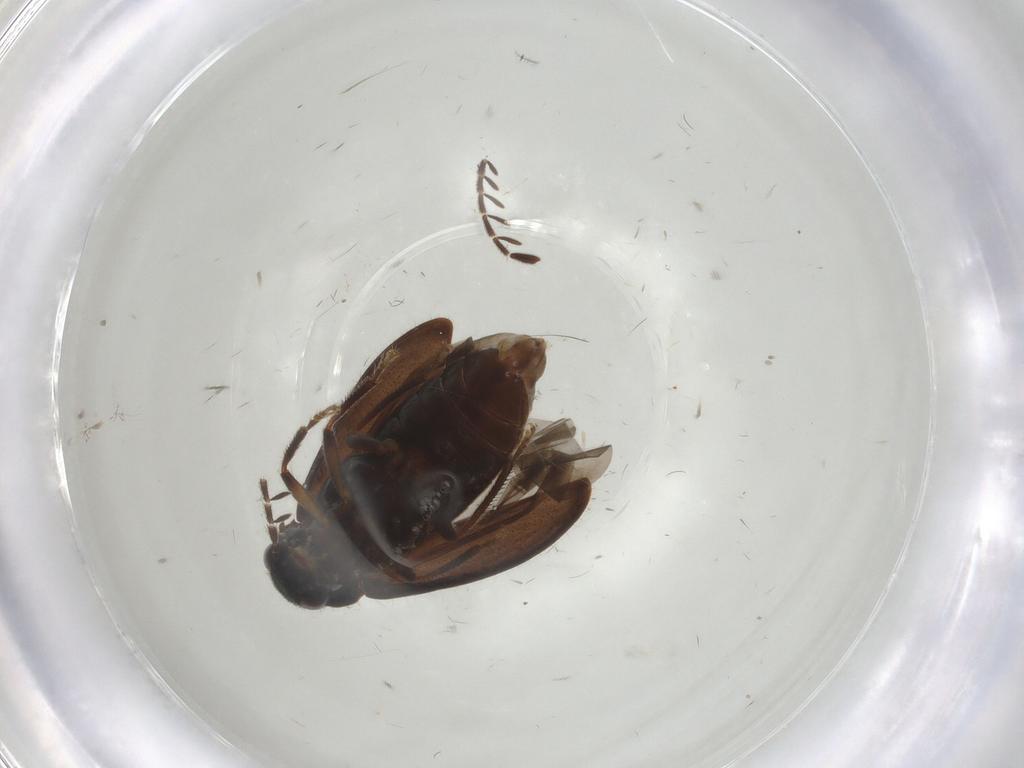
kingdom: Animalia
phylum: Arthropoda
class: Insecta
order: Coleoptera
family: Ptilodactylidae
